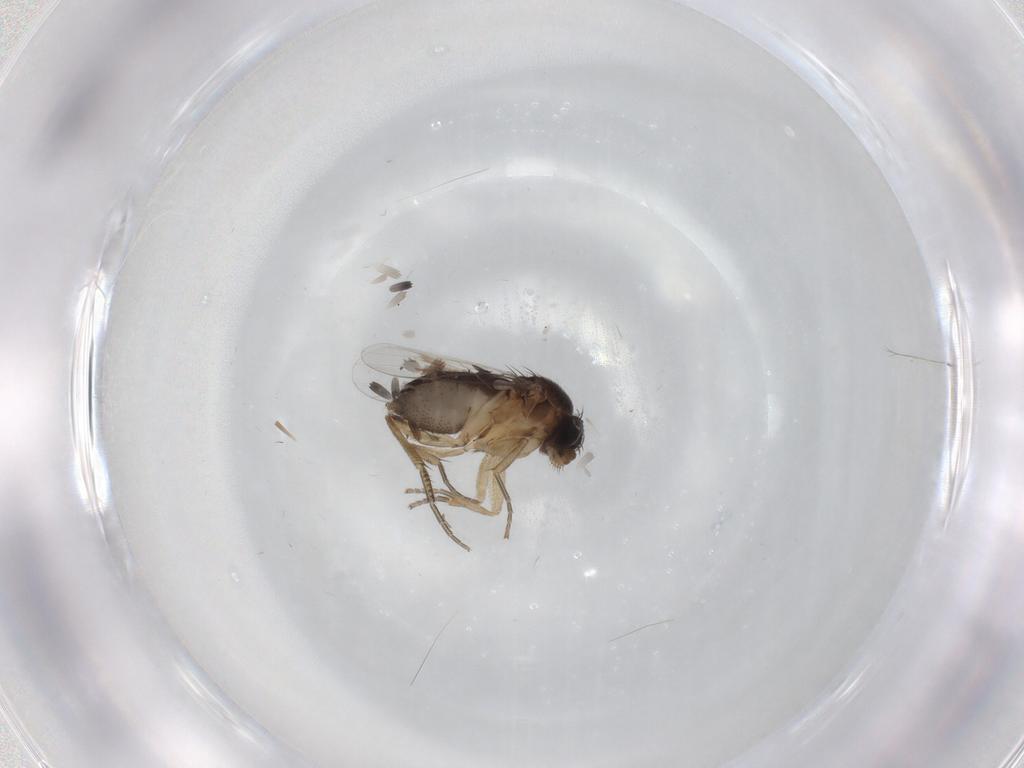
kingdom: Animalia
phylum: Arthropoda
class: Insecta
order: Diptera
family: Phoridae
